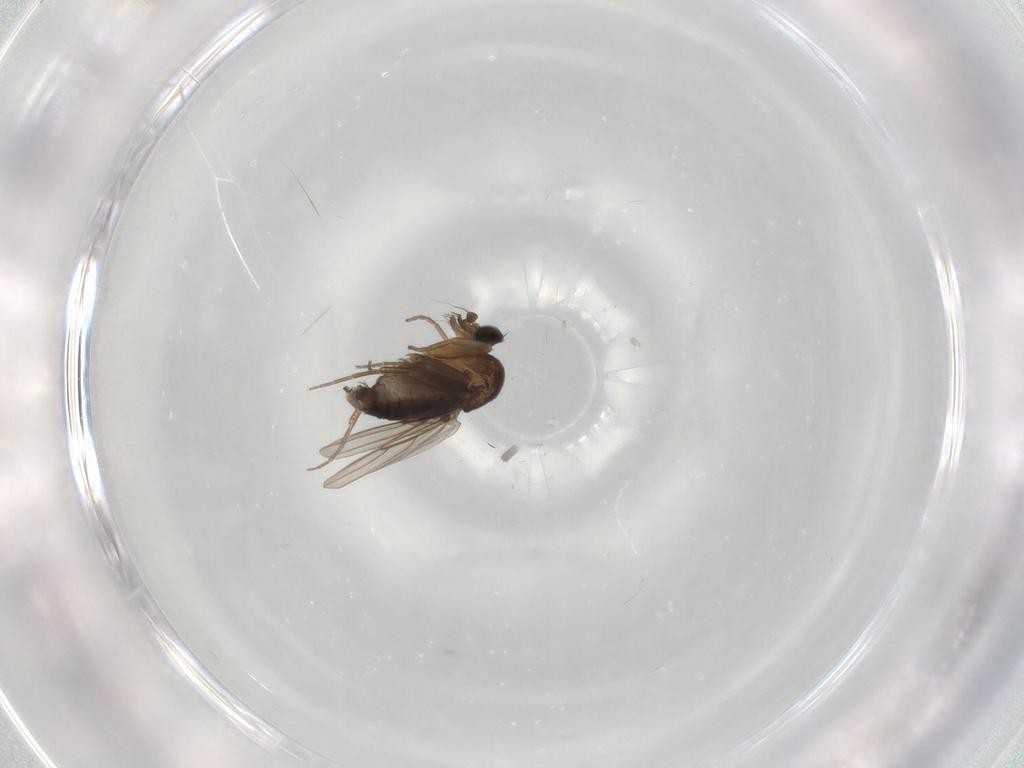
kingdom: Animalia
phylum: Arthropoda
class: Insecta
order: Diptera
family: Phoridae
